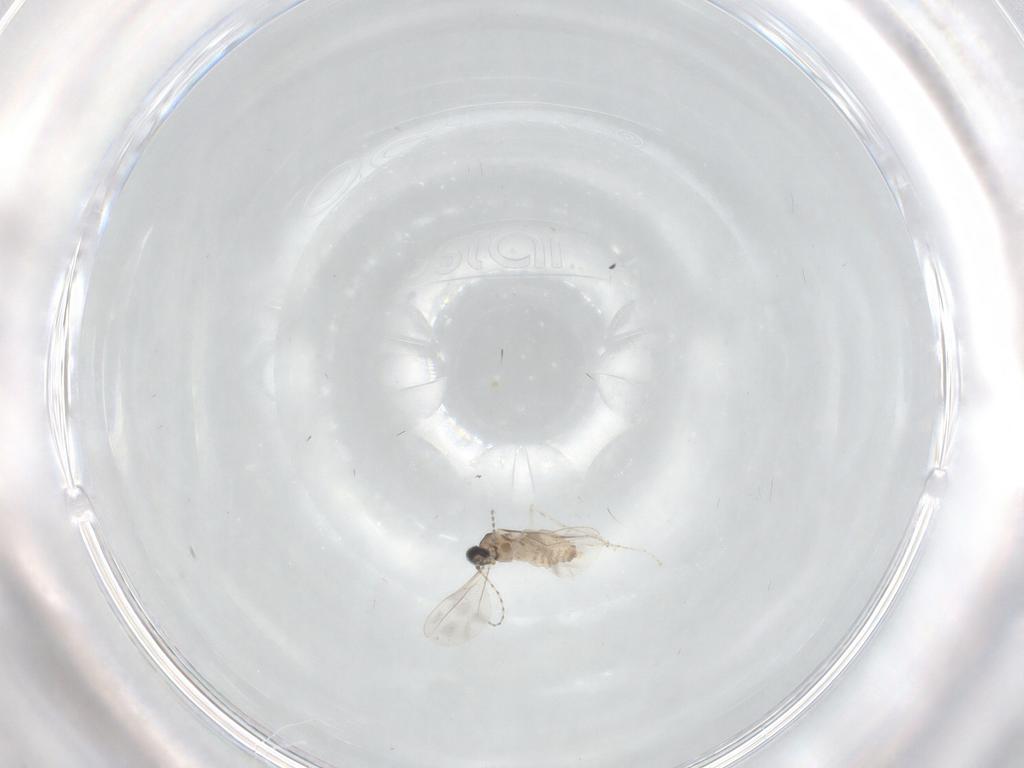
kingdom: Animalia
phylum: Arthropoda
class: Insecta
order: Diptera
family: Cecidomyiidae
